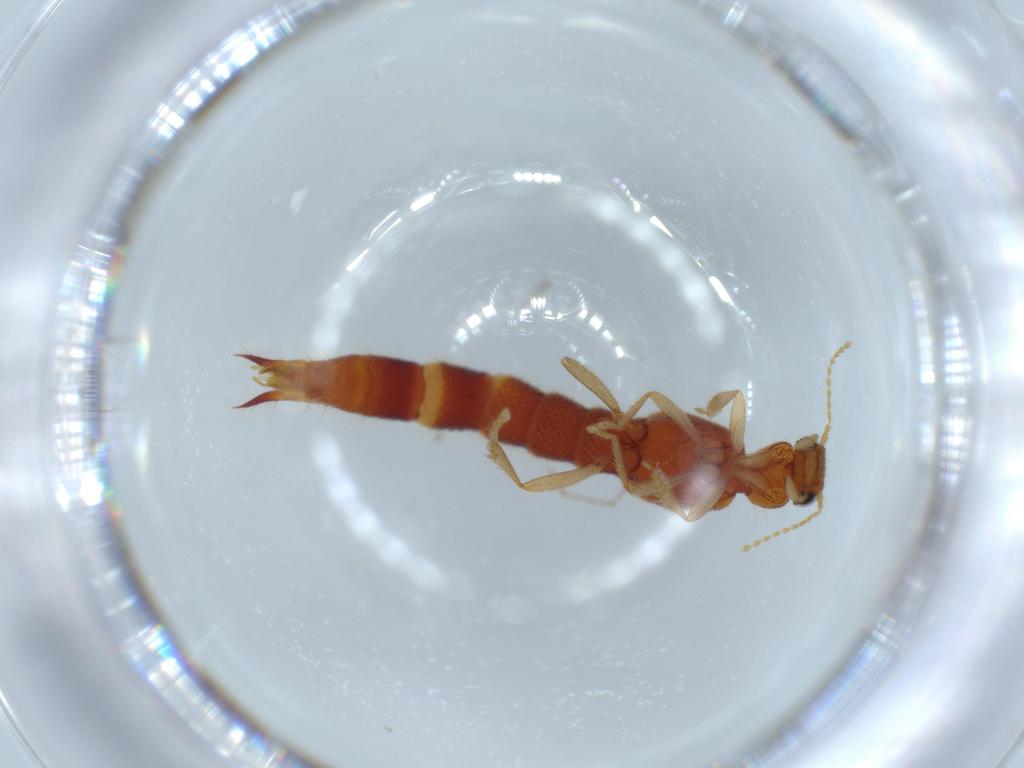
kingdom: Animalia
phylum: Arthropoda
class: Insecta
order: Coleoptera
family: Staphylinidae
